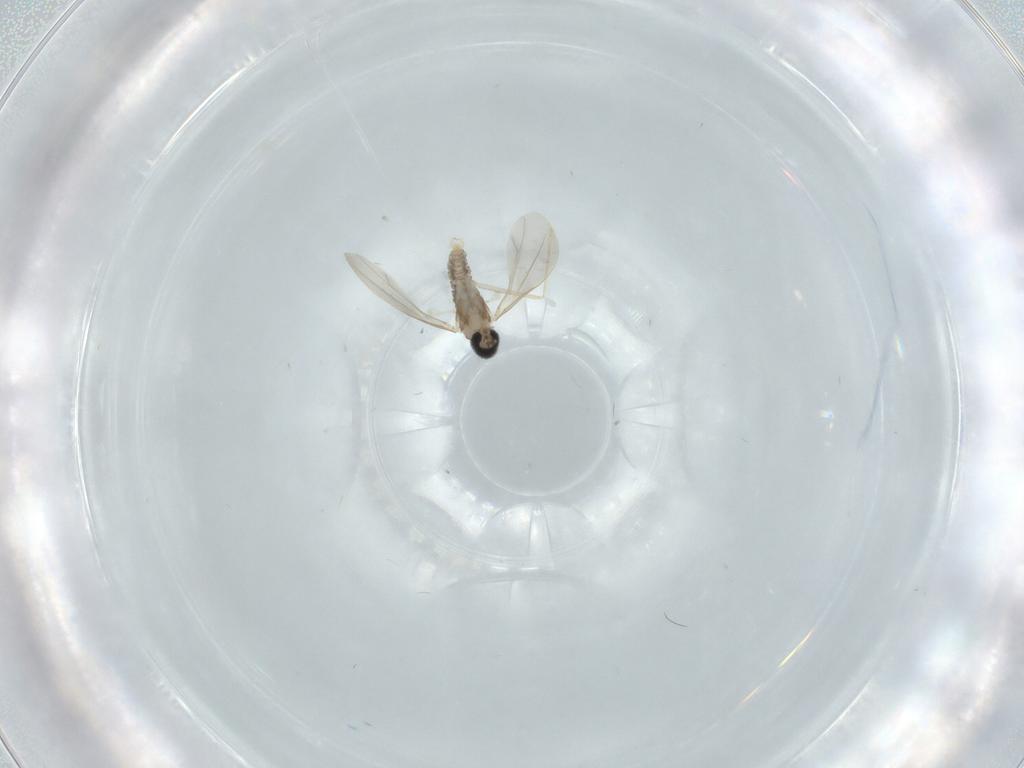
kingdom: Animalia
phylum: Arthropoda
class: Insecta
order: Diptera
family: Cecidomyiidae
